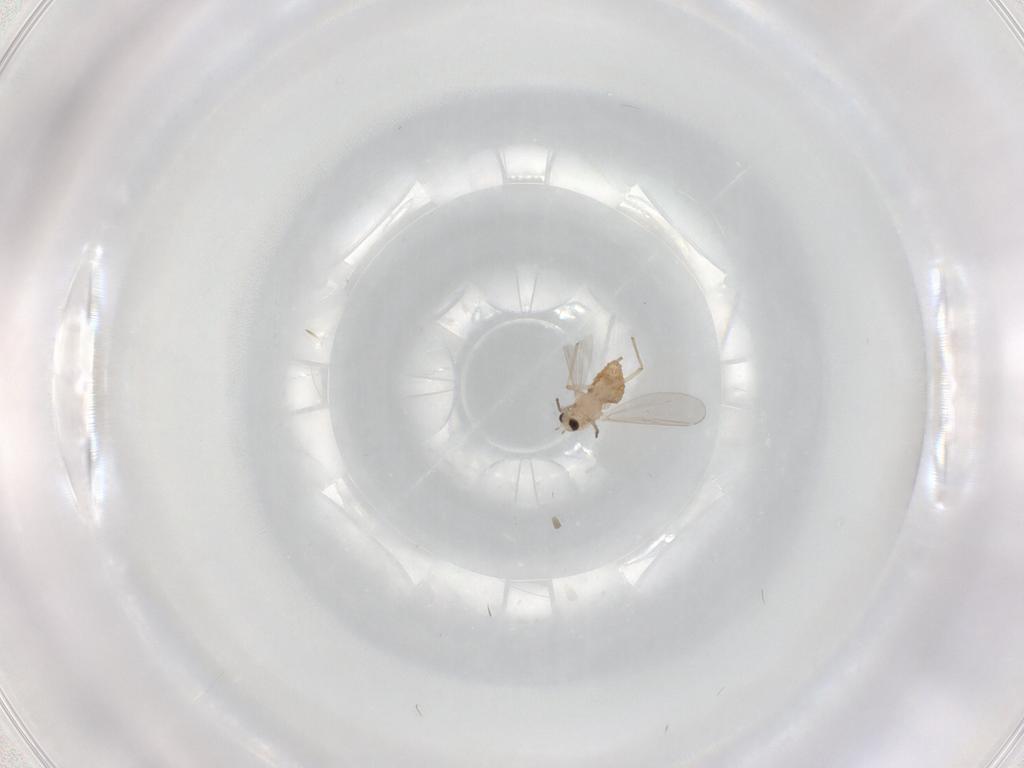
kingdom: Animalia
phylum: Arthropoda
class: Insecta
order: Diptera
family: Chironomidae
